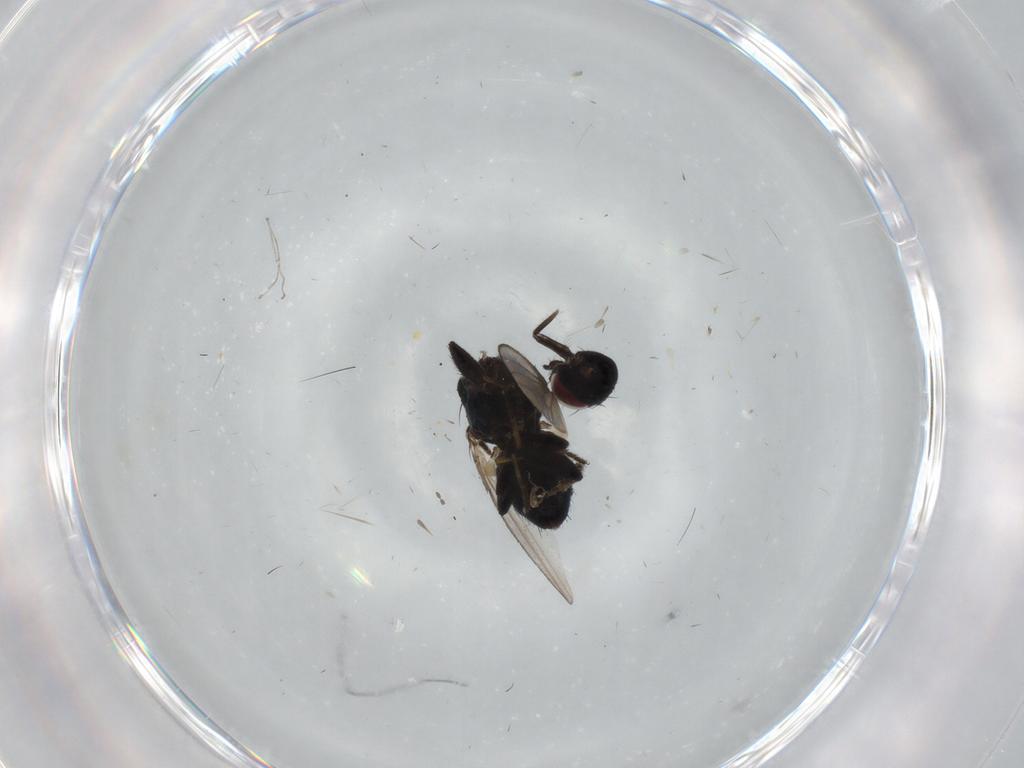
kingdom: Animalia
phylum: Arthropoda
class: Insecta
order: Diptera
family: Milichiidae
